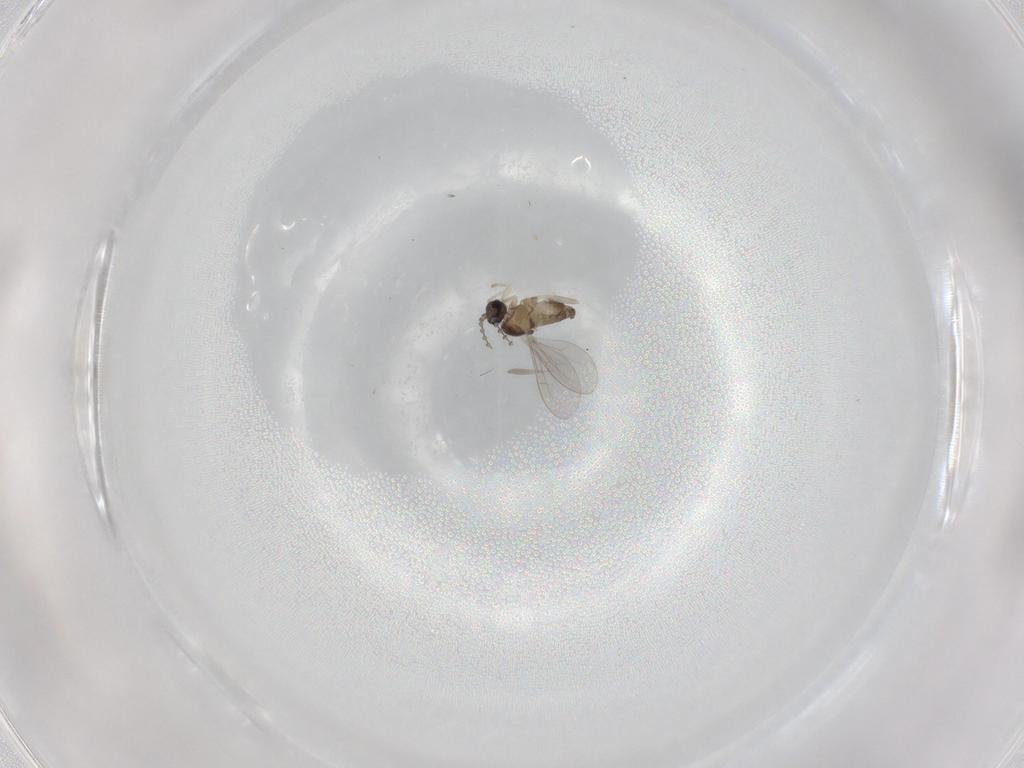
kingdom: Animalia
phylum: Arthropoda
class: Insecta
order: Diptera
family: Cecidomyiidae
